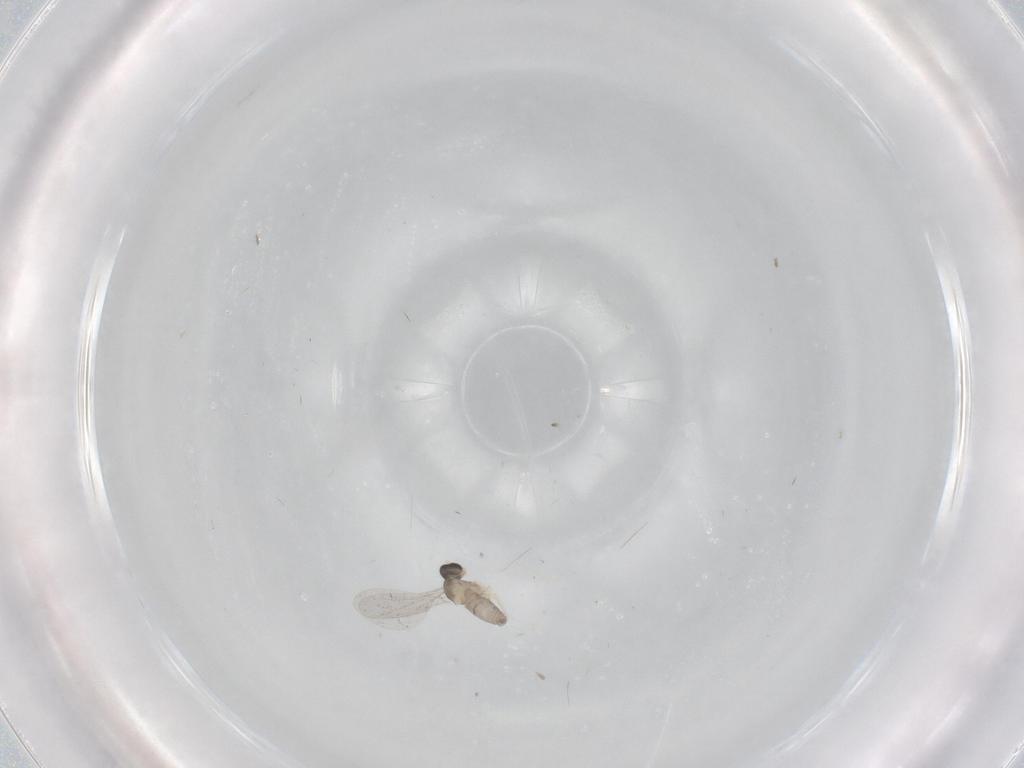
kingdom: Animalia
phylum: Arthropoda
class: Insecta
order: Diptera
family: Cecidomyiidae
